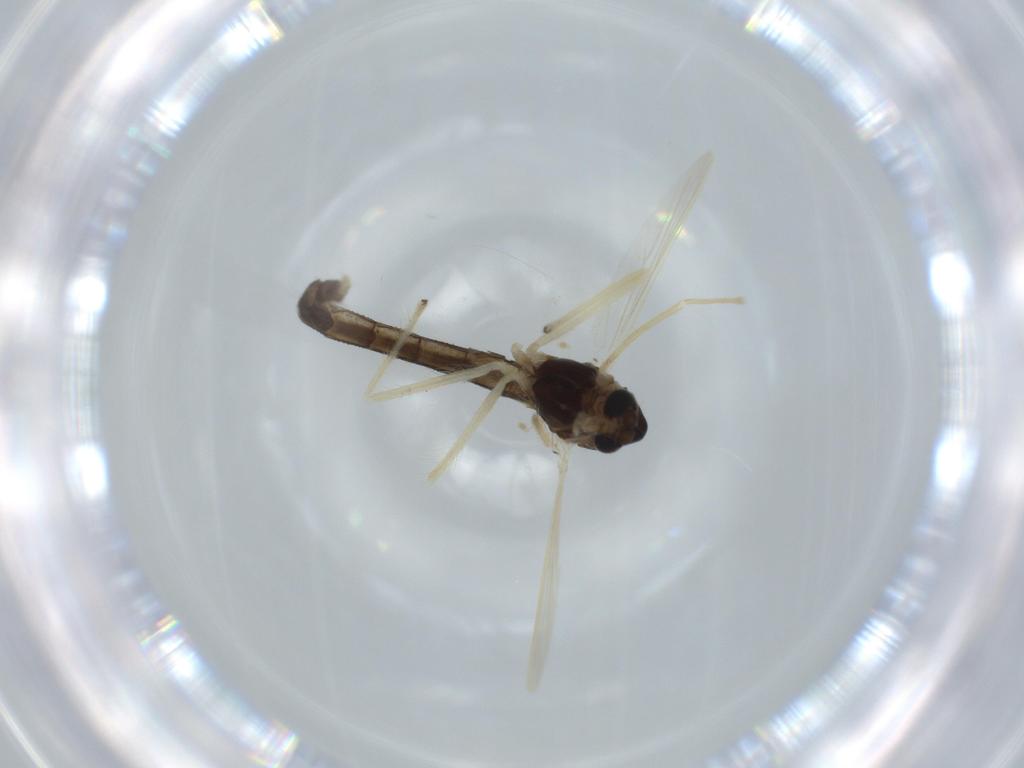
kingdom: Animalia
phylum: Arthropoda
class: Insecta
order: Diptera
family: Chironomidae
